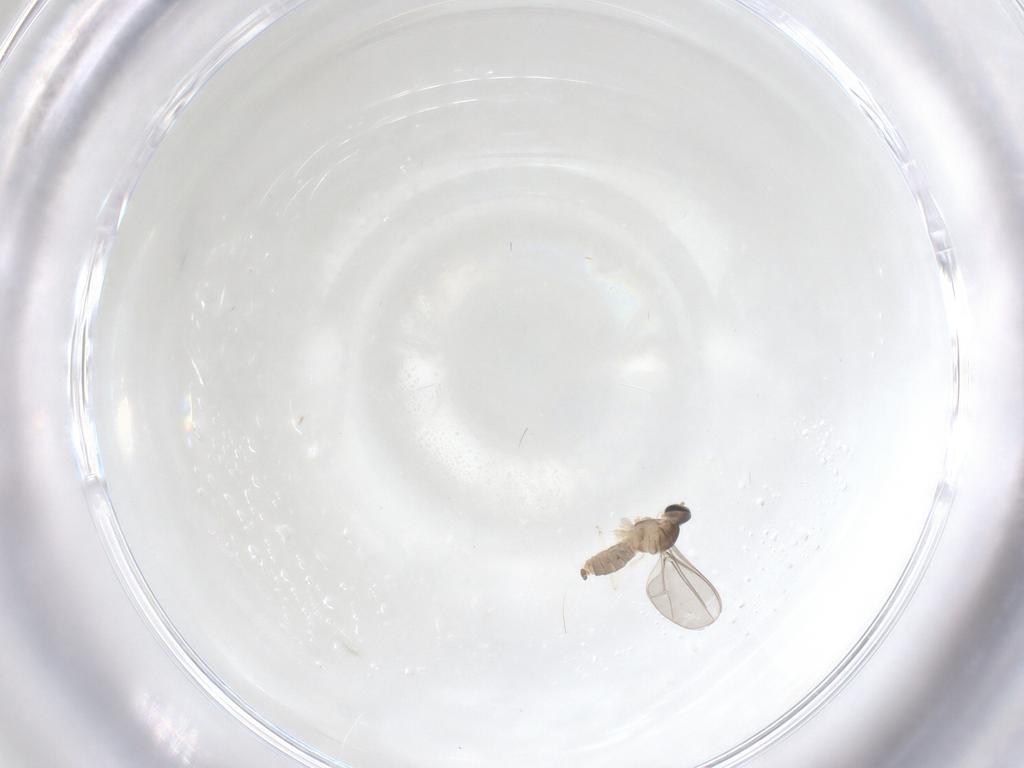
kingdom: Animalia
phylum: Arthropoda
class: Insecta
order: Diptera
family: Cecidomyiidae
